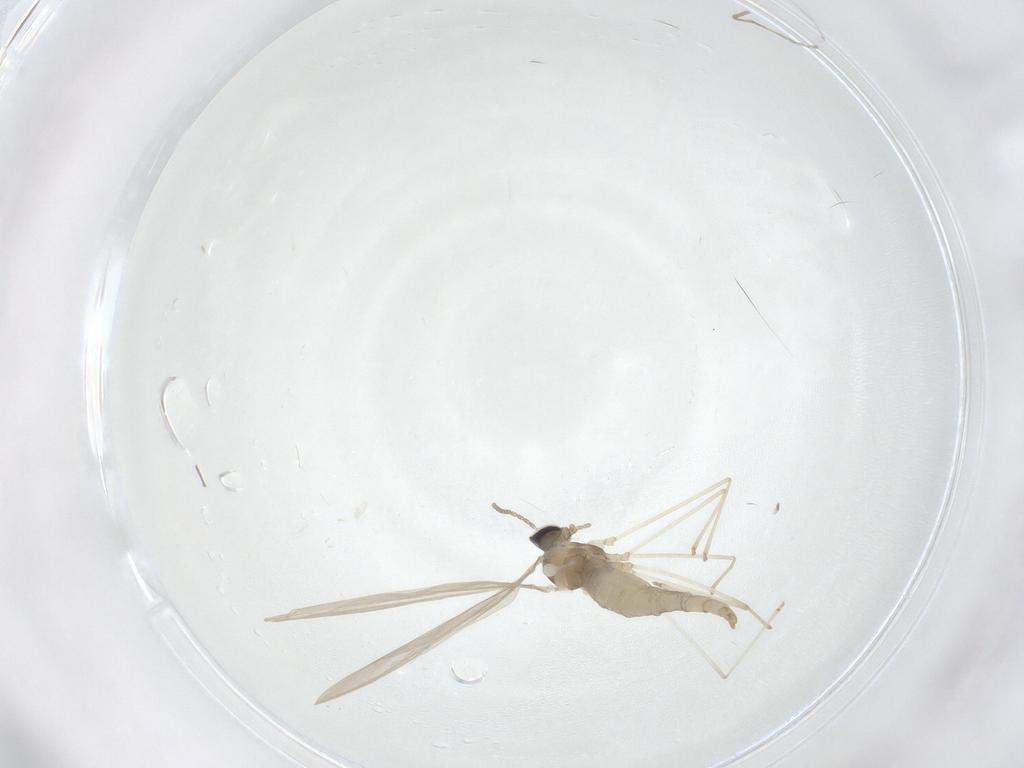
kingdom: Animalia
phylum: Arthropoda
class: Insecta
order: Diptera
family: Cecidomyiidae
